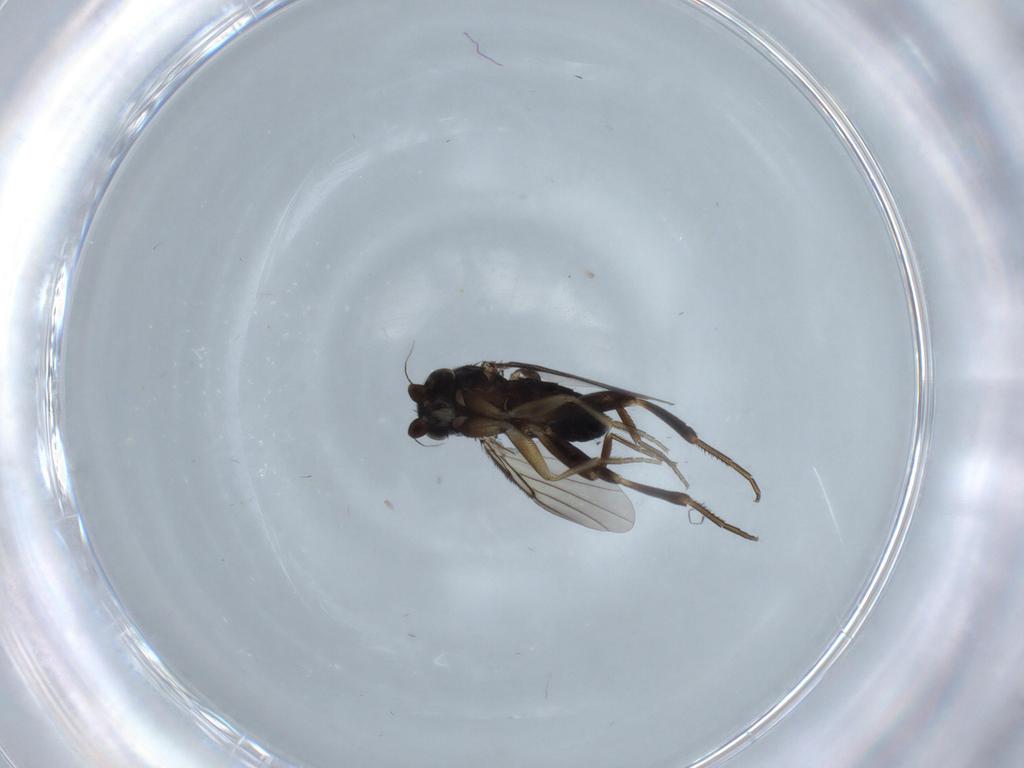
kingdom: Animalia
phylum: Arthropoda
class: Insecta
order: Diptera
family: Phoridae
